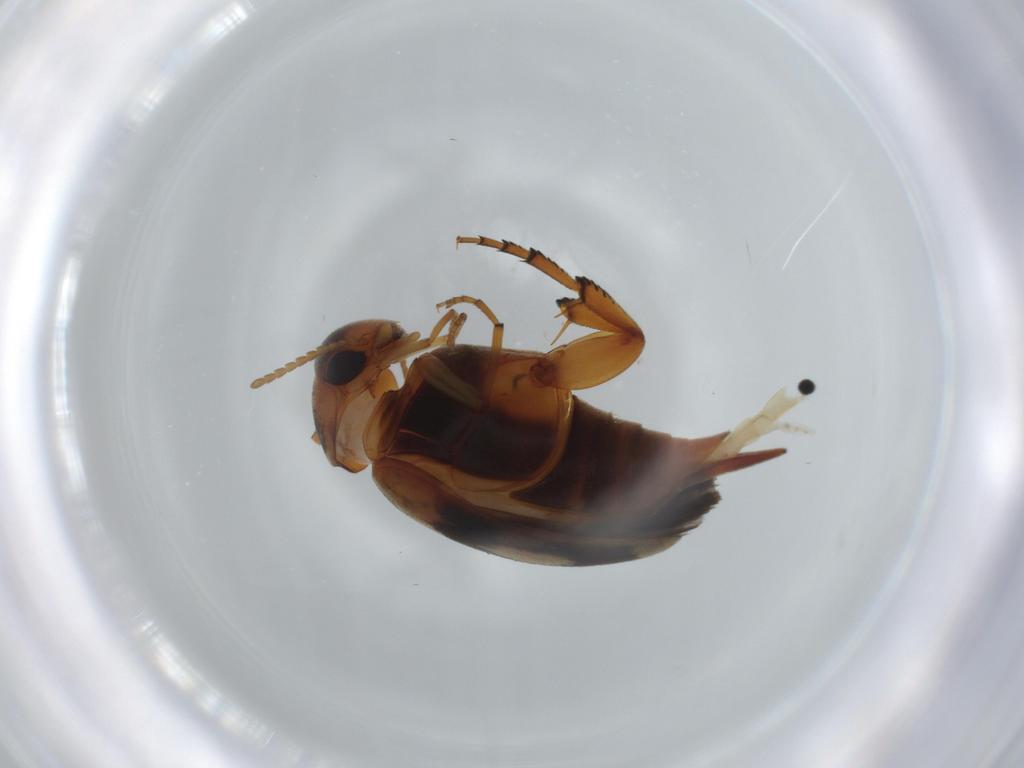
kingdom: Animalia
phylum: Arthropoda
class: Insecta
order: Coleoptera
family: Mordellidae
